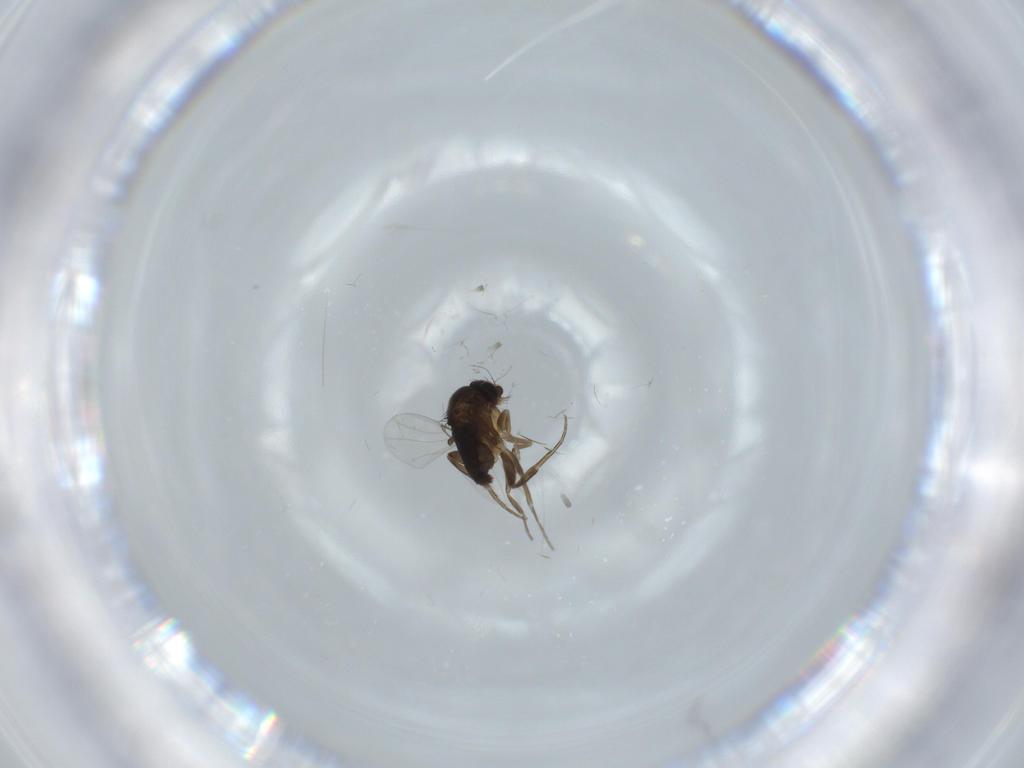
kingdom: Animalia
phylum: Arthropoda
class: Insecta
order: Diptera
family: Phoridae
